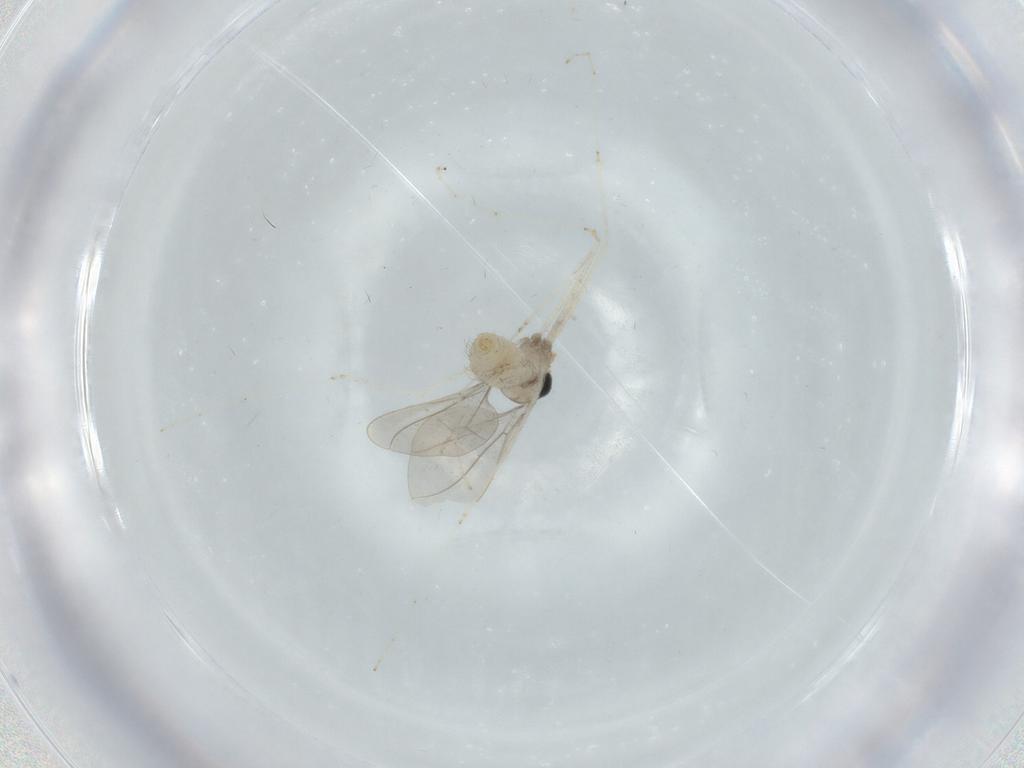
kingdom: Animalia
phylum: Arthropoda
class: Insecta
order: Diptera
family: Cecidomyiidae
